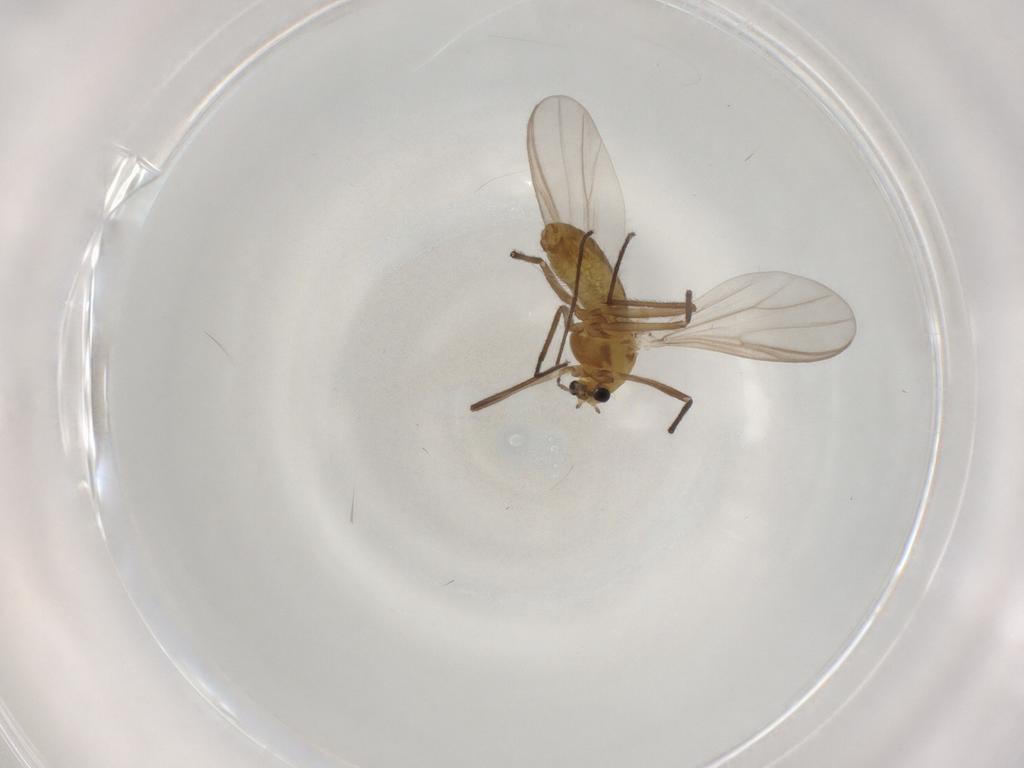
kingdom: Animalia
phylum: Arthropoda
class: Insecta
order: Diptera
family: Chironomidae
